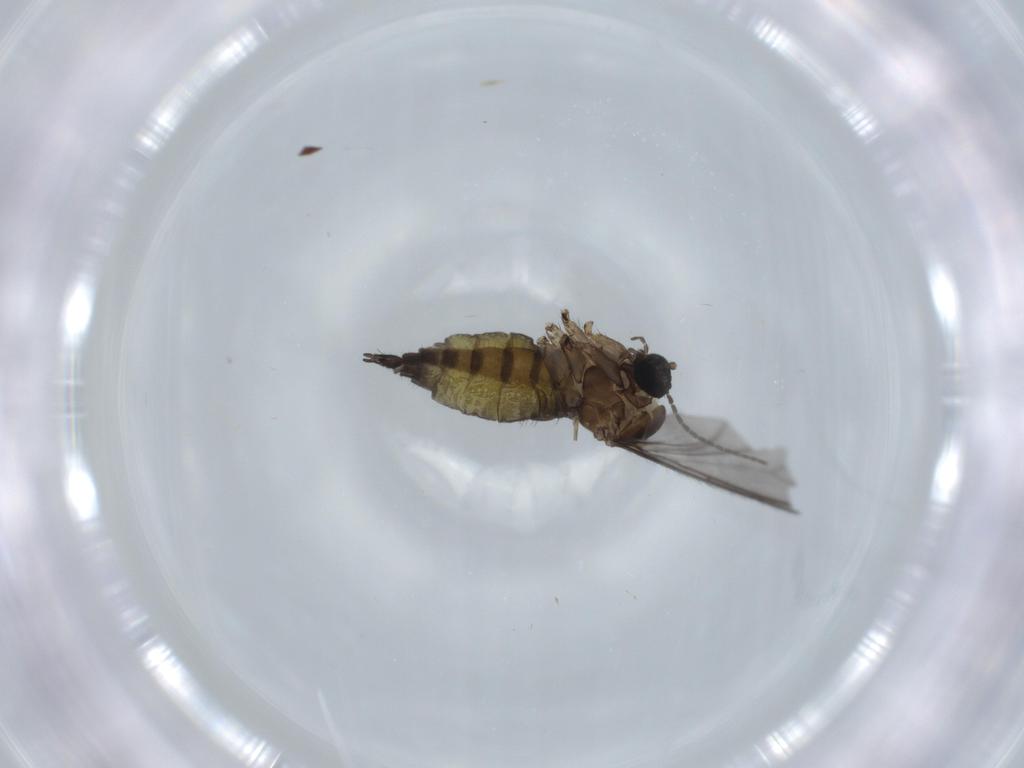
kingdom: Animalia
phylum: Arthropoda
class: Insecta
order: Diptera
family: Sciaridae
